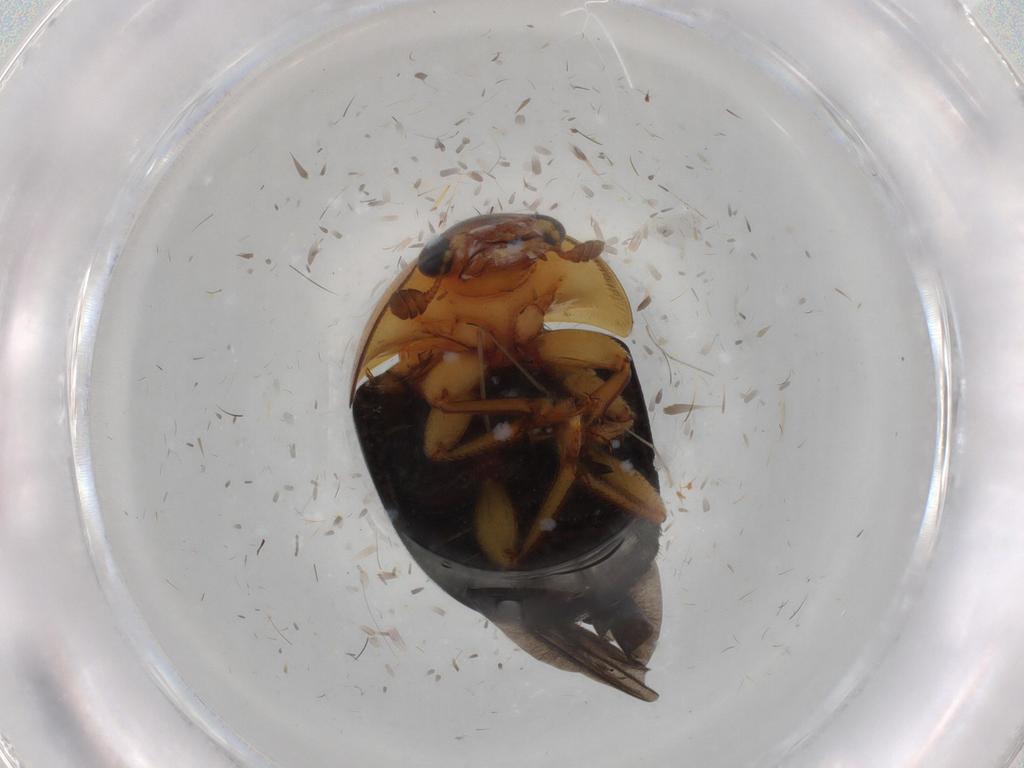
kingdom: Animalia
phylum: Arthropoda
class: Insecta
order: Coleoptera
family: Nitidulidae
